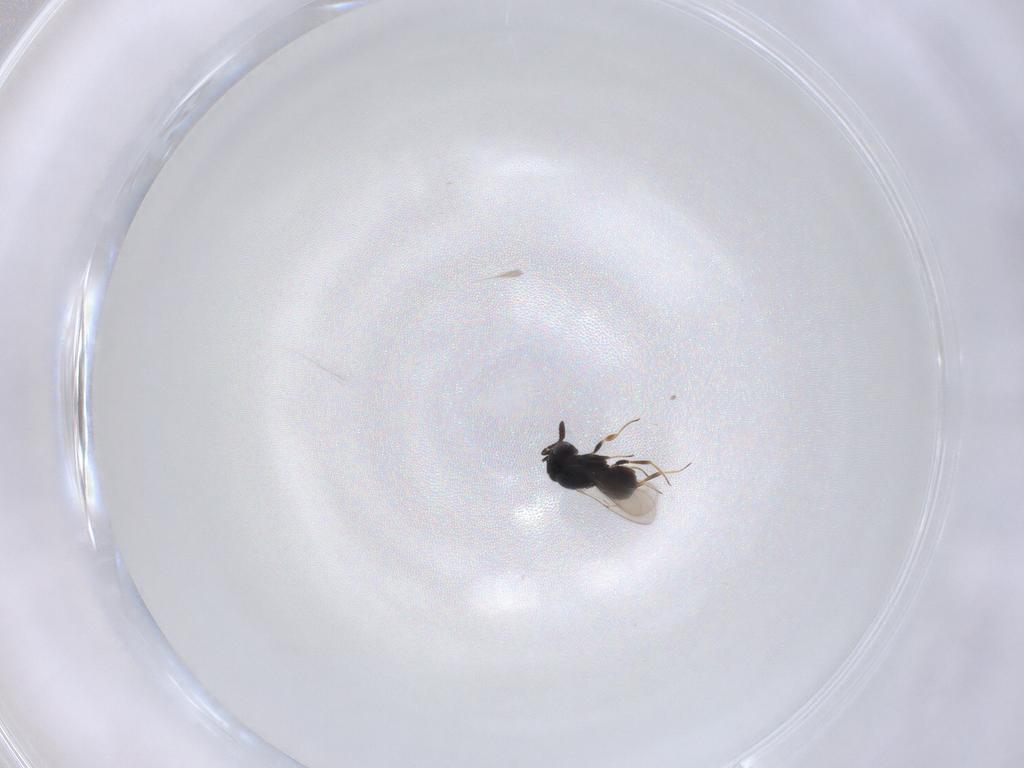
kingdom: Animalia
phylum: Arthropoda
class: Insecta
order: Hymenoptera
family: Scelionidae
